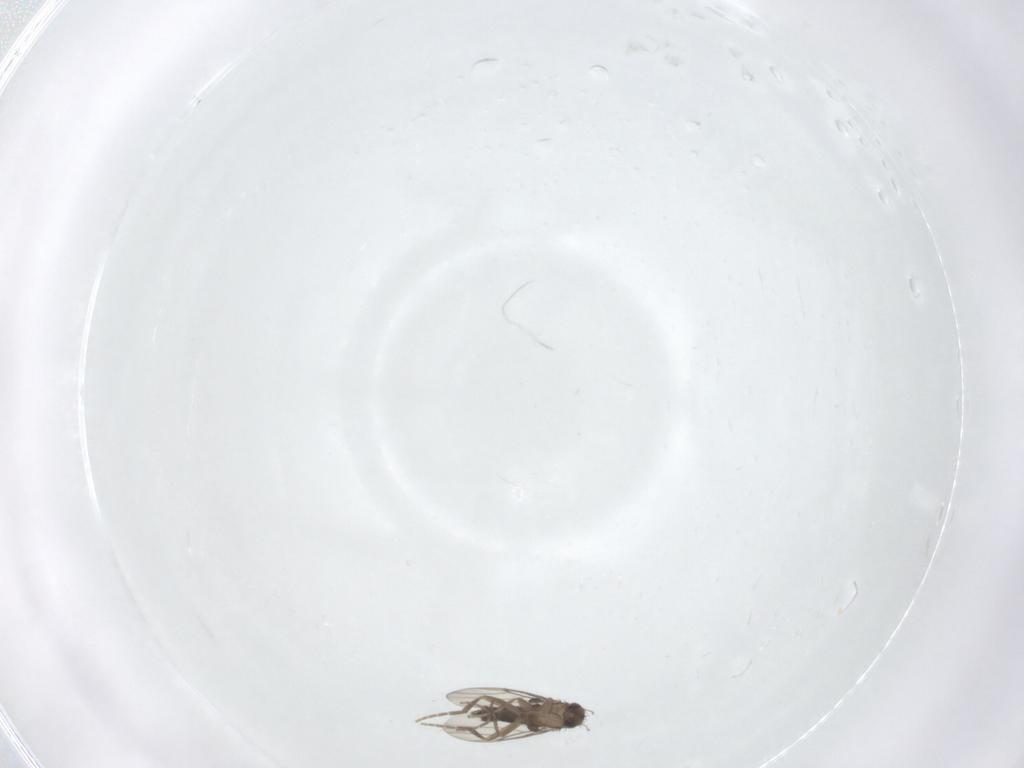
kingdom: Animalia
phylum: Arthropoda
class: Insecta
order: Diptera
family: Phoridae
